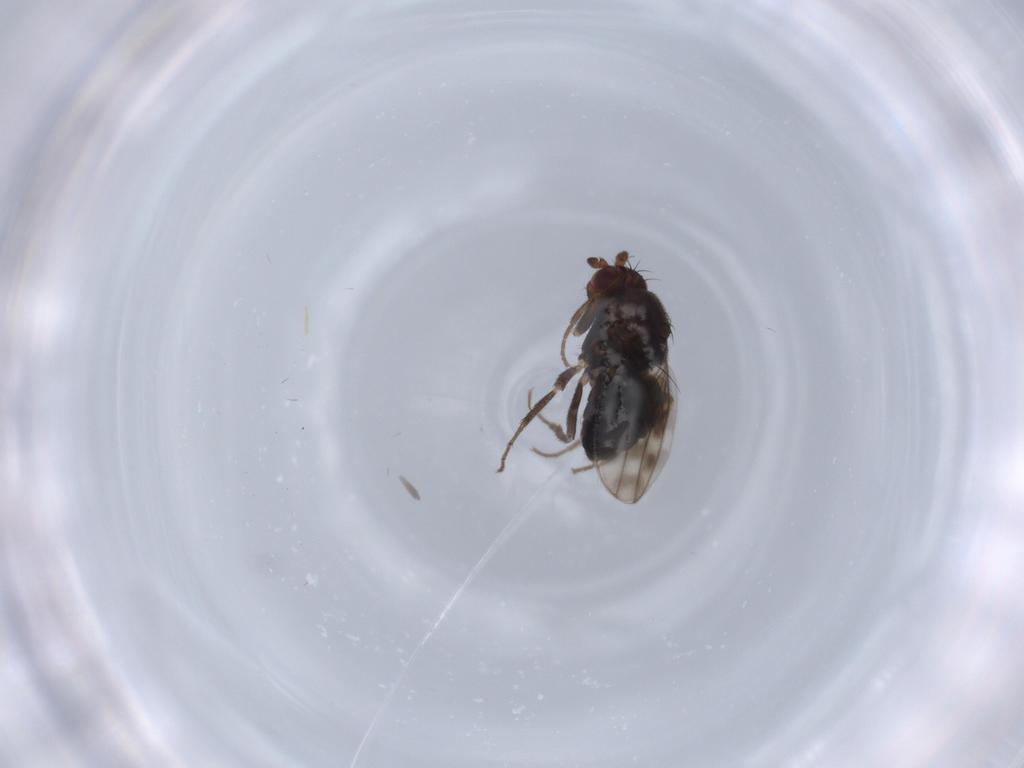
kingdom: Animalia
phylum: Arthropoda
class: Insecta
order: Diptera
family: Sphaeroceridae
